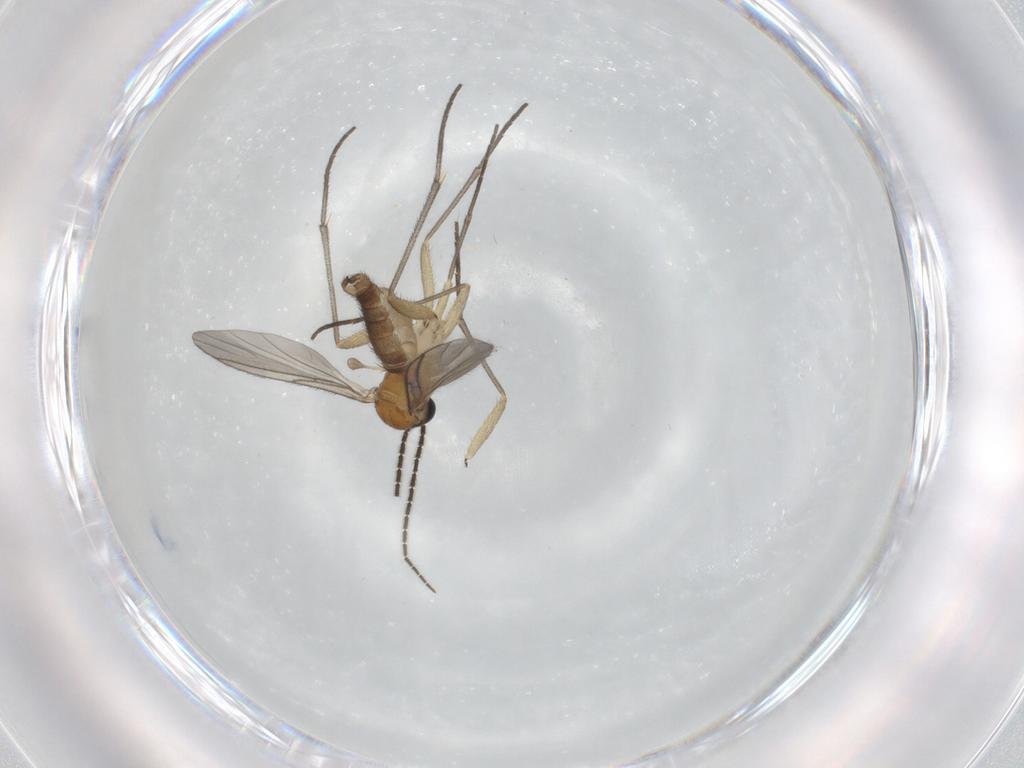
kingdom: Animalia
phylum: Arthropoda
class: Insecta
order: Diptera
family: Sciaridae
